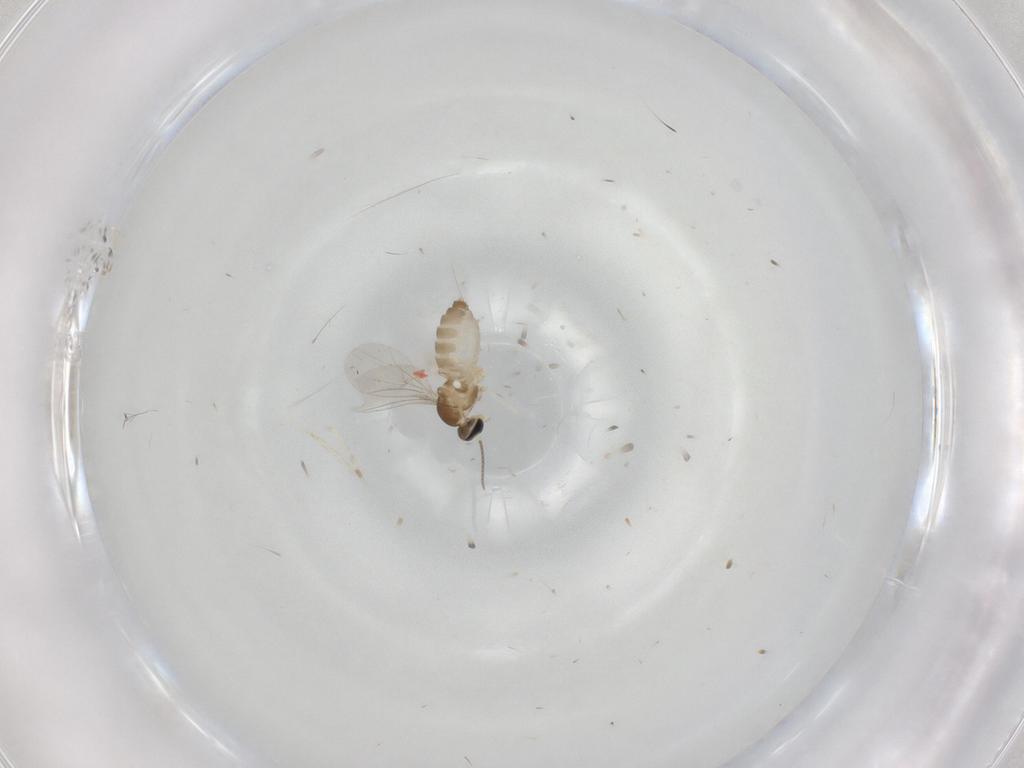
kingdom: Animalia
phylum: Arthropoda
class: Insecta
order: Diptera
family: Cecidomyiidae
